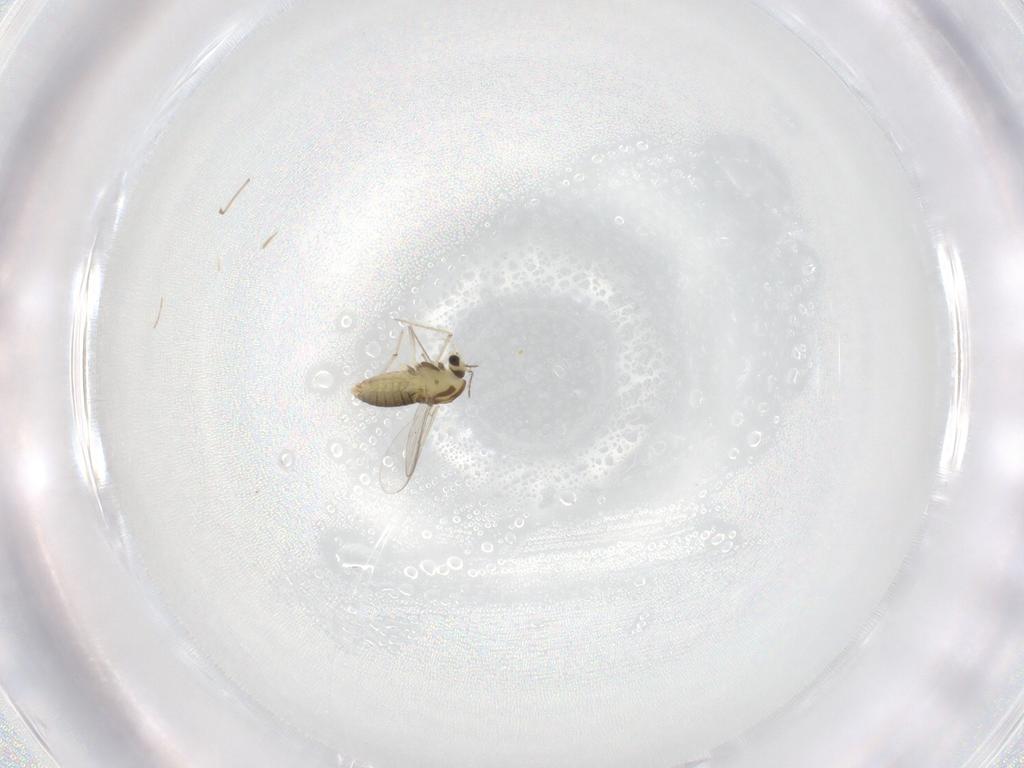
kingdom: Animalia
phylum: Arthropoda
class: Insecta
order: Diptera
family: Chironomidae
